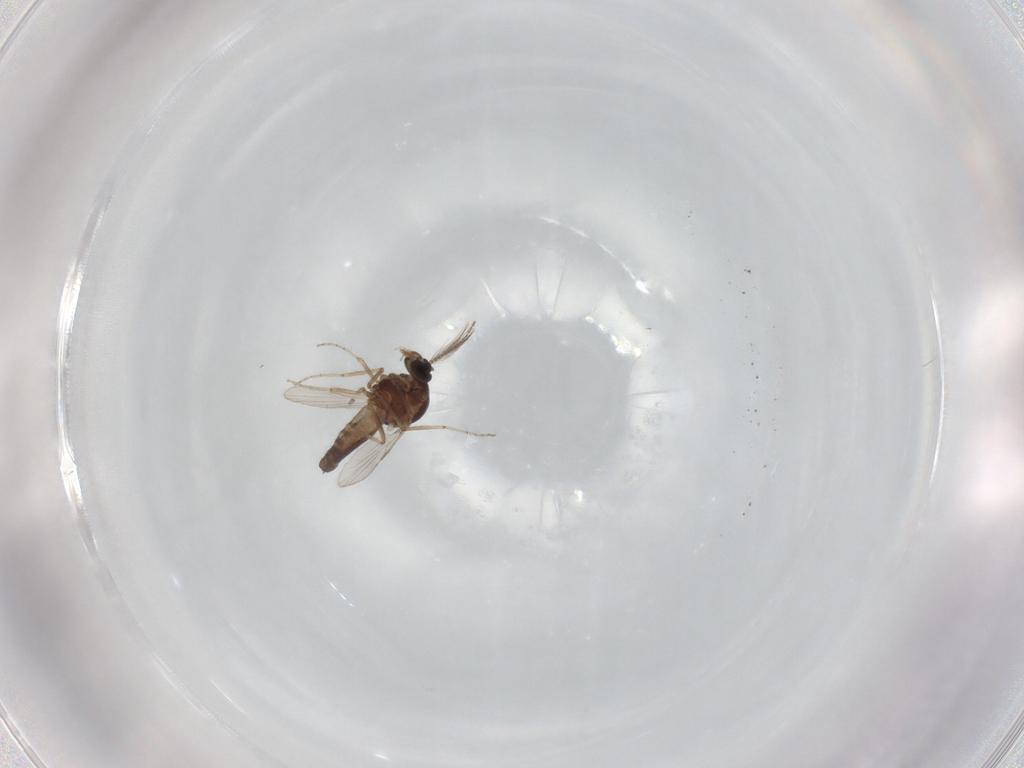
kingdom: Animalia
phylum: Arthropoda
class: Insecta
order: Diptera
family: Ceratopogonidae
